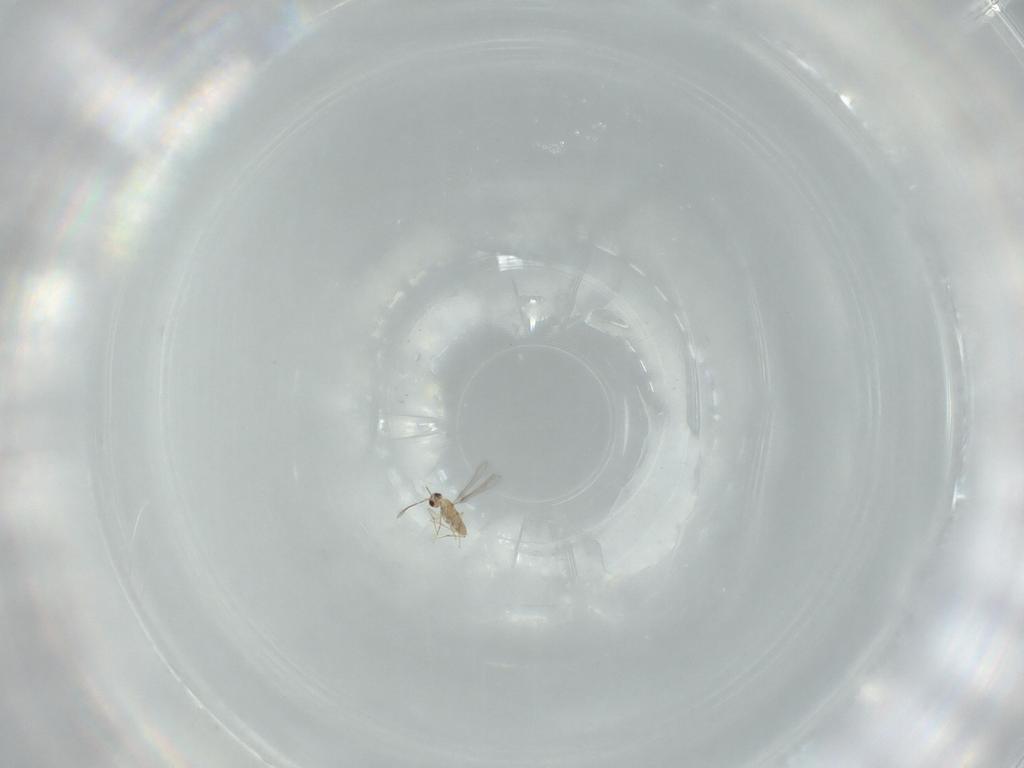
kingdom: Animalia
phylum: Arthropoda
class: Insecta
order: Hymenoptera
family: Mymaridae
